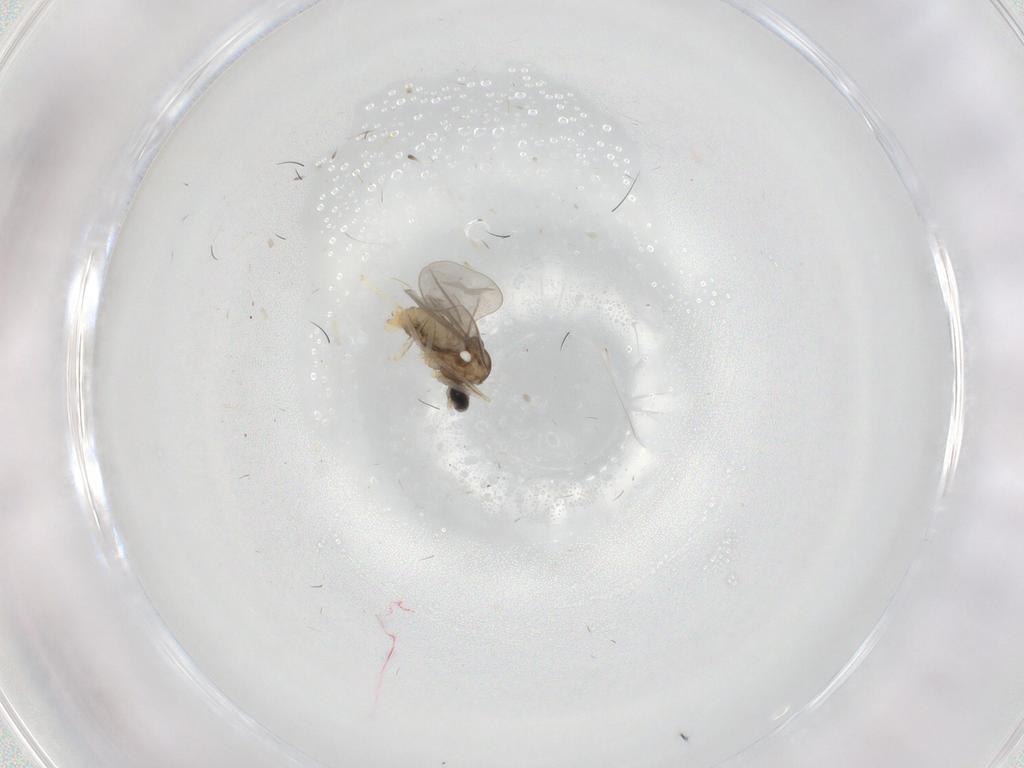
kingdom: Animalia
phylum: Arthropoda
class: Insecta
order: Diptera
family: Cecidomyiidae
